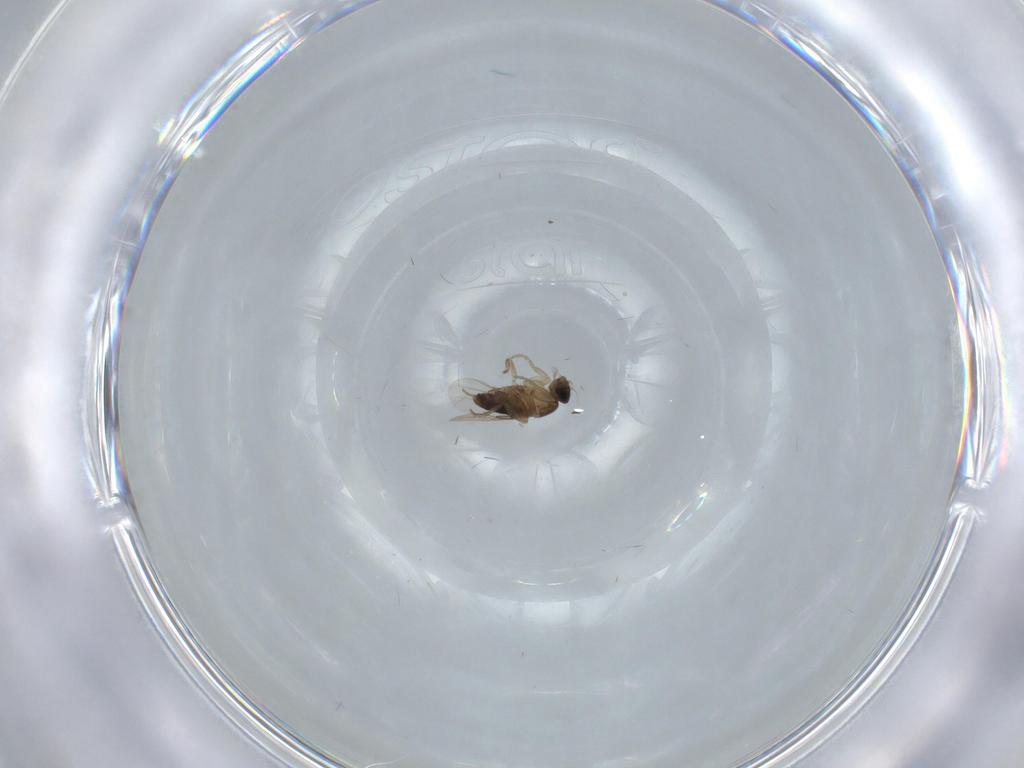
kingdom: Animalia
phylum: Arthropoda
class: Insecta
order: Diptera
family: Phoridae
